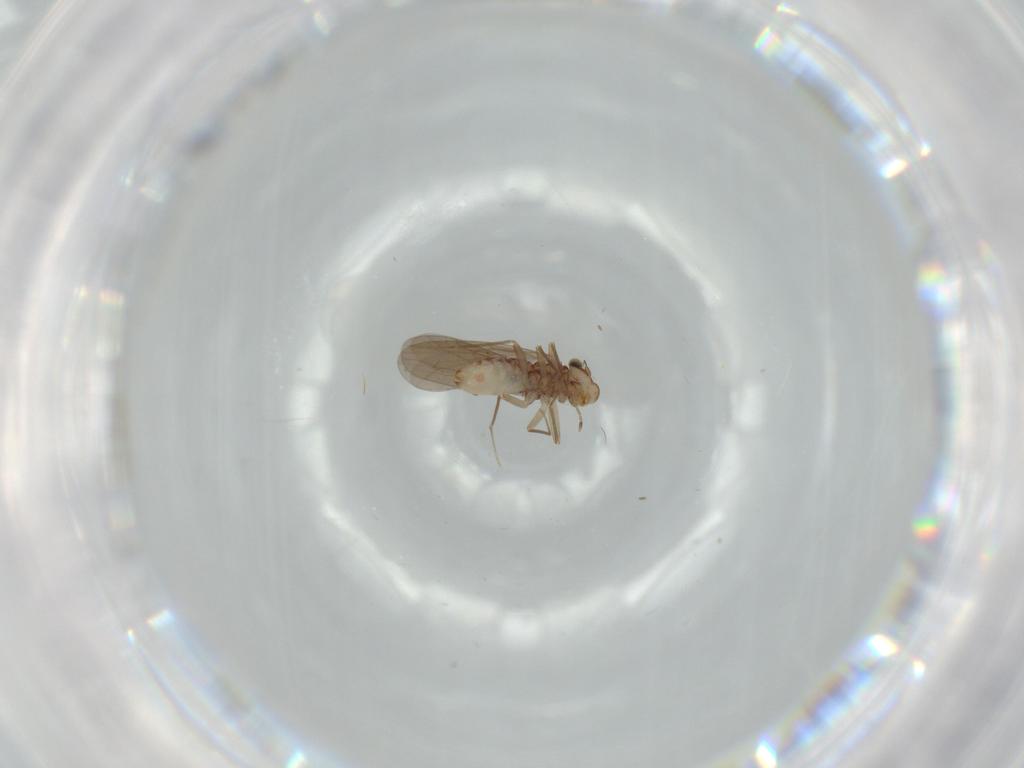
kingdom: Animalia
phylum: Arthropoda
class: Insecta
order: Psocodea
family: Lepidopsocidae
